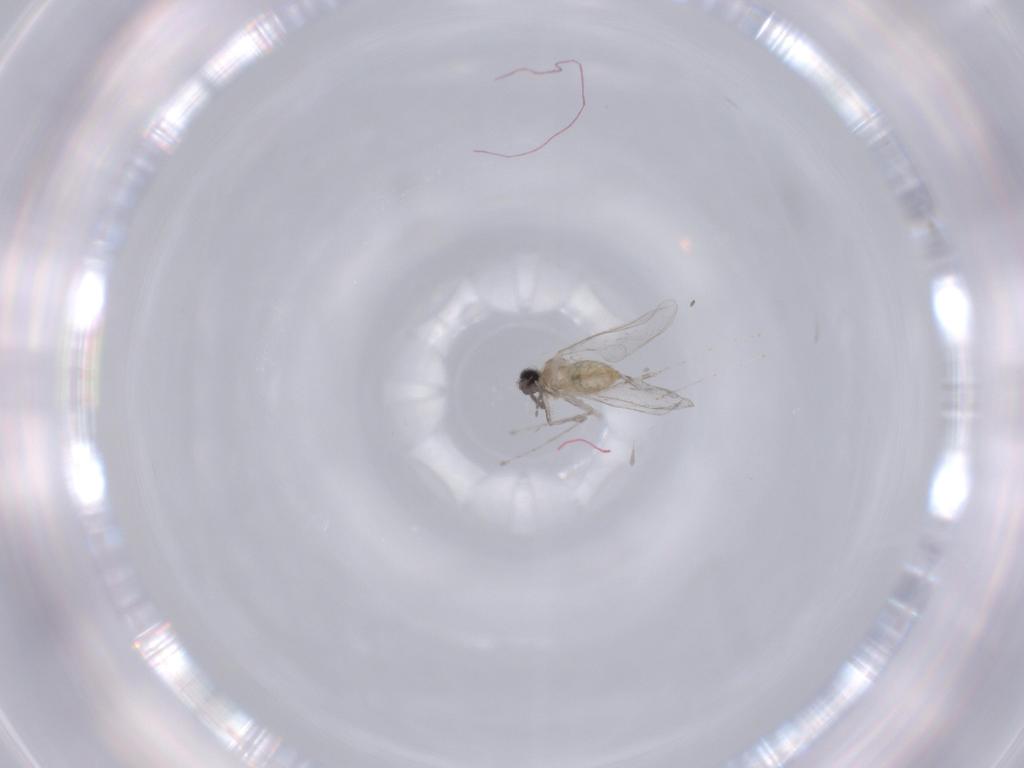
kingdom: Animalia
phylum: Arthropoda
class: Insecta
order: Diptera
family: Cecidomyiidae
